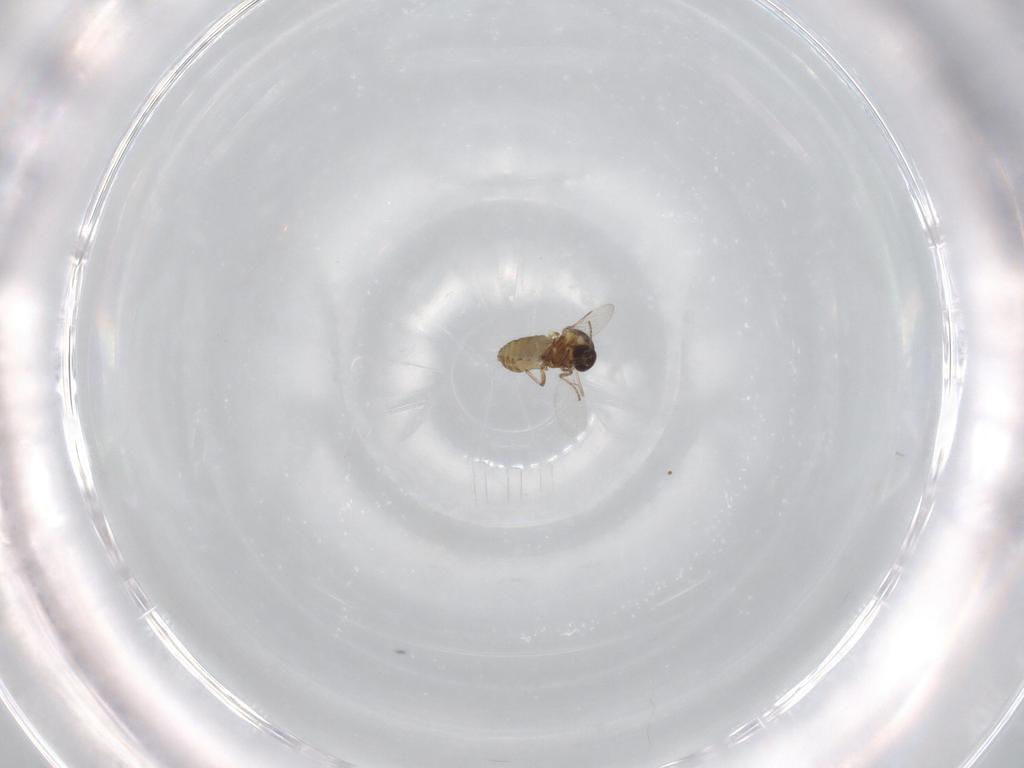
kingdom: Animalia
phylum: Arthropoda
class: Insecta
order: Diptera
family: Ceratopogonidae
